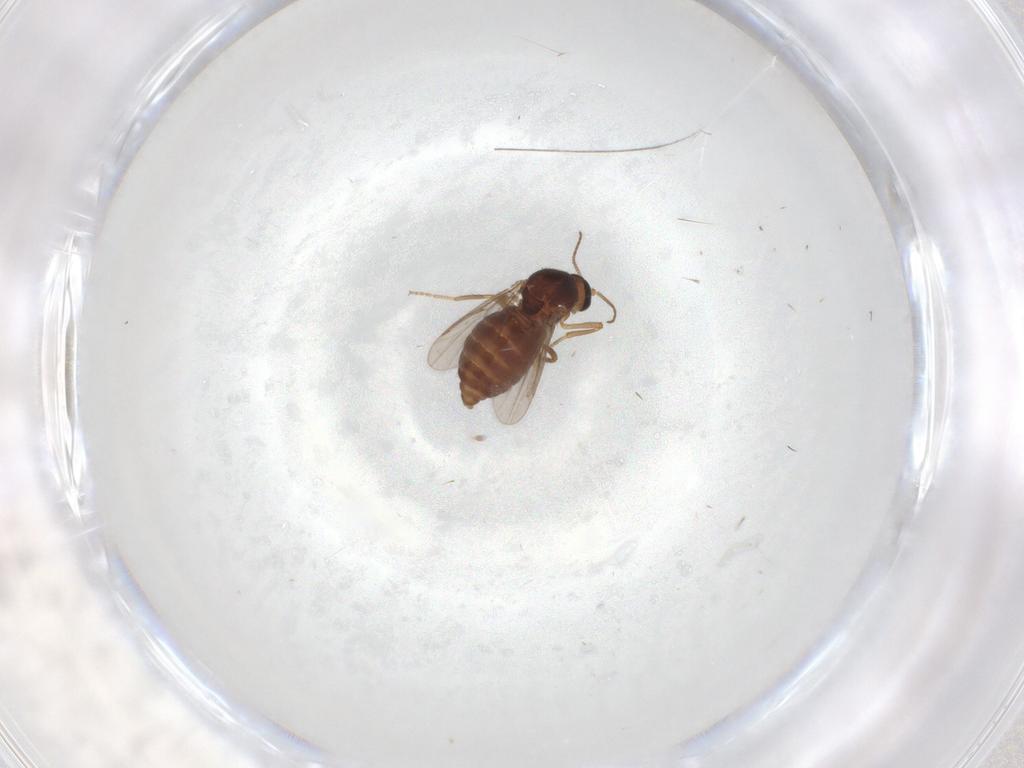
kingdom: Animalia
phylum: Arthropoda
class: Insecta
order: Diptera
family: Ceratopogonidae
